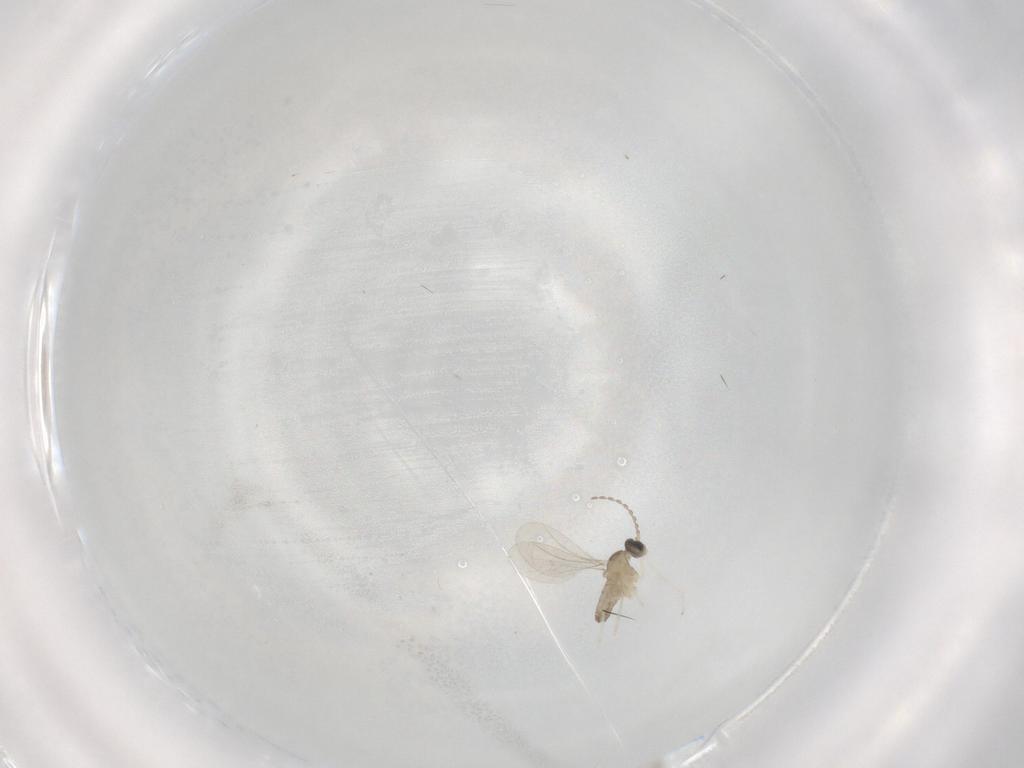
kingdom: Animalia
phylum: Arthropoda
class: Insecta
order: Diptera
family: Cecidomyiidae
